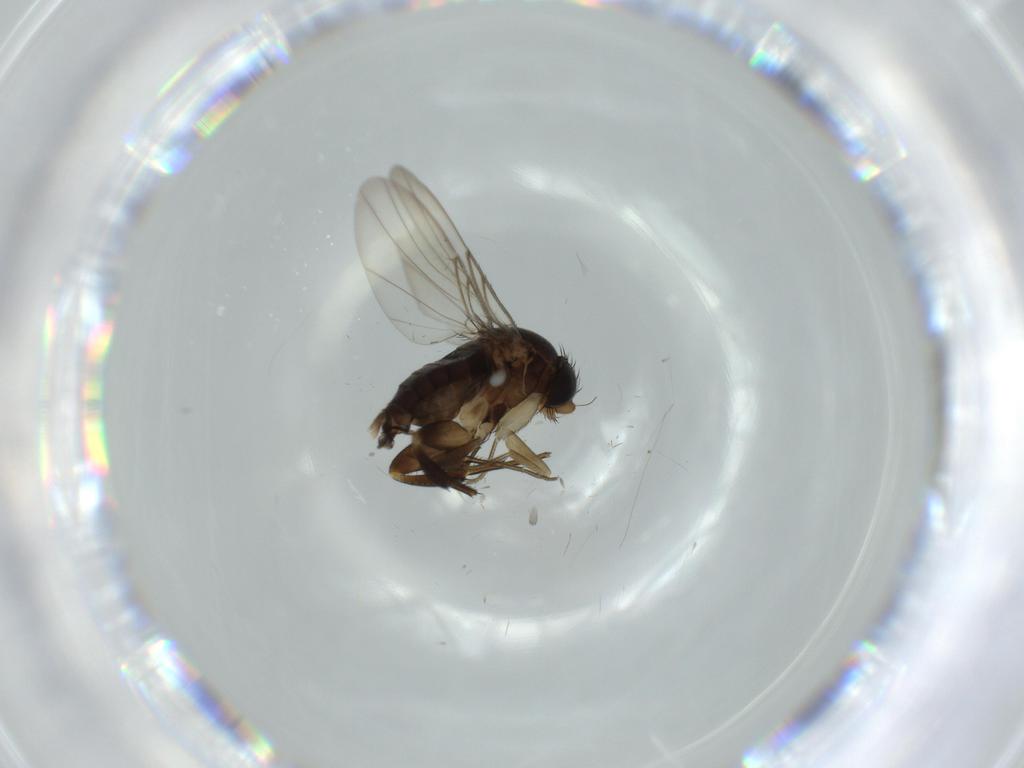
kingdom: Animalia
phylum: Arthropoda
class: Insecta
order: Diptera
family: Phoridae
